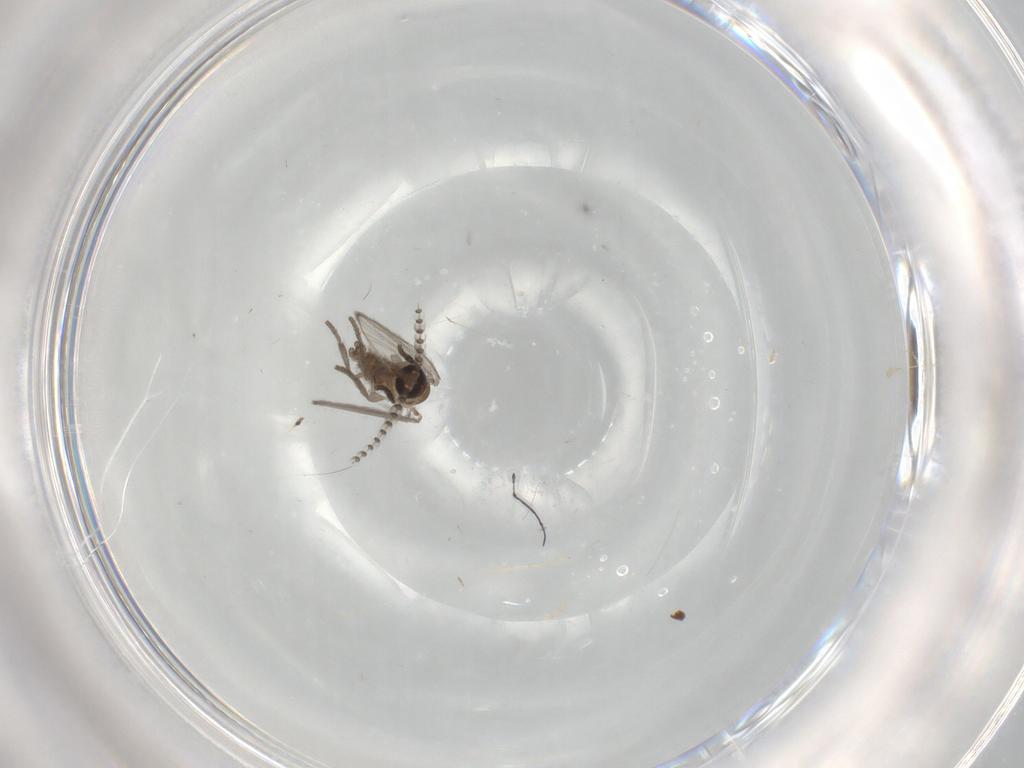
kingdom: Animalia
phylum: Arthropoda
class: Insecta
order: Diptera
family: Psychodidae
